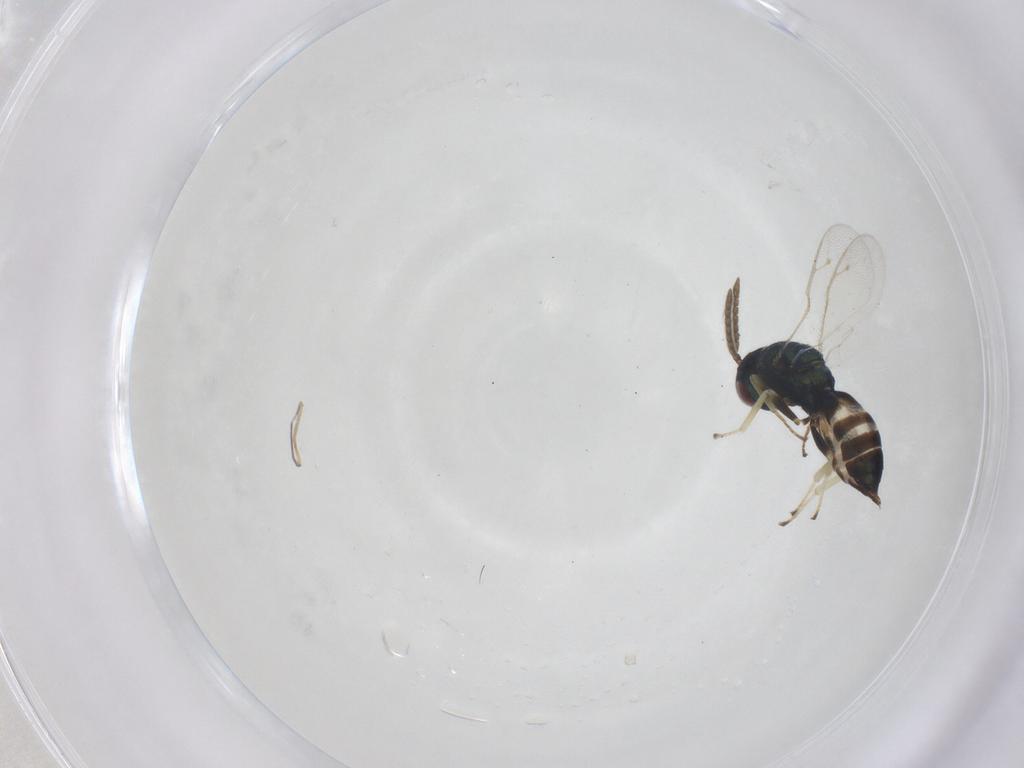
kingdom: Animalia
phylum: Arthropoda
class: Insecta
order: Hymenoptera
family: Pteromalidae
